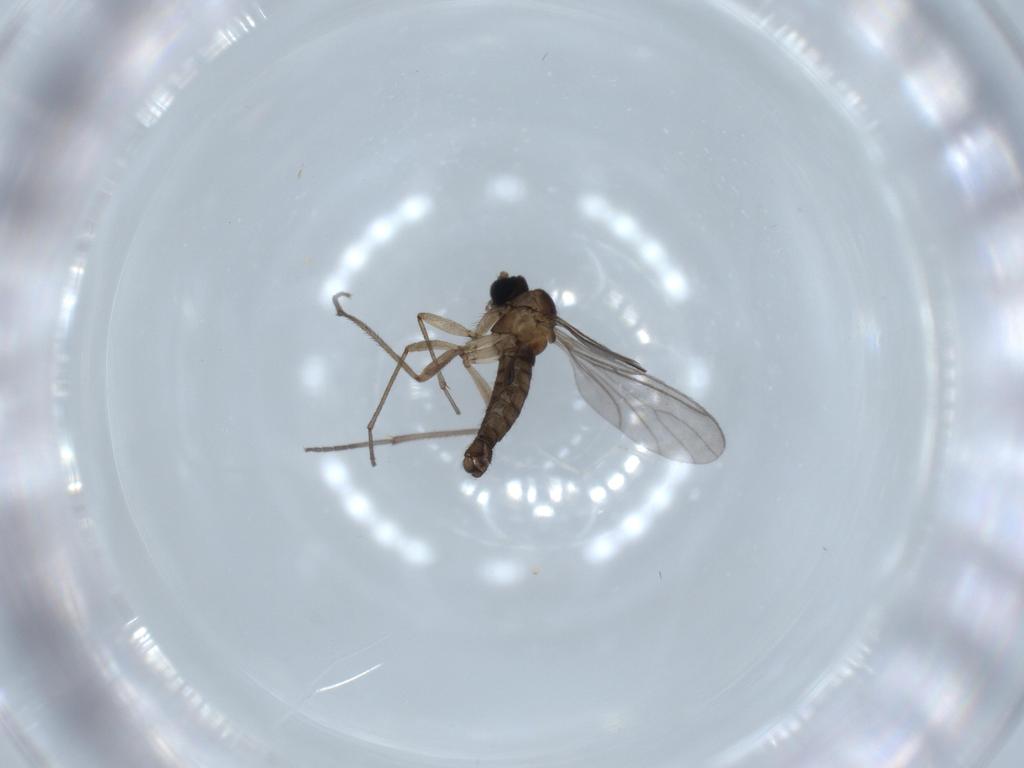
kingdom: Animalia
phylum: Arthropoda
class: Insecta
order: Diptera
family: Sciaridae
